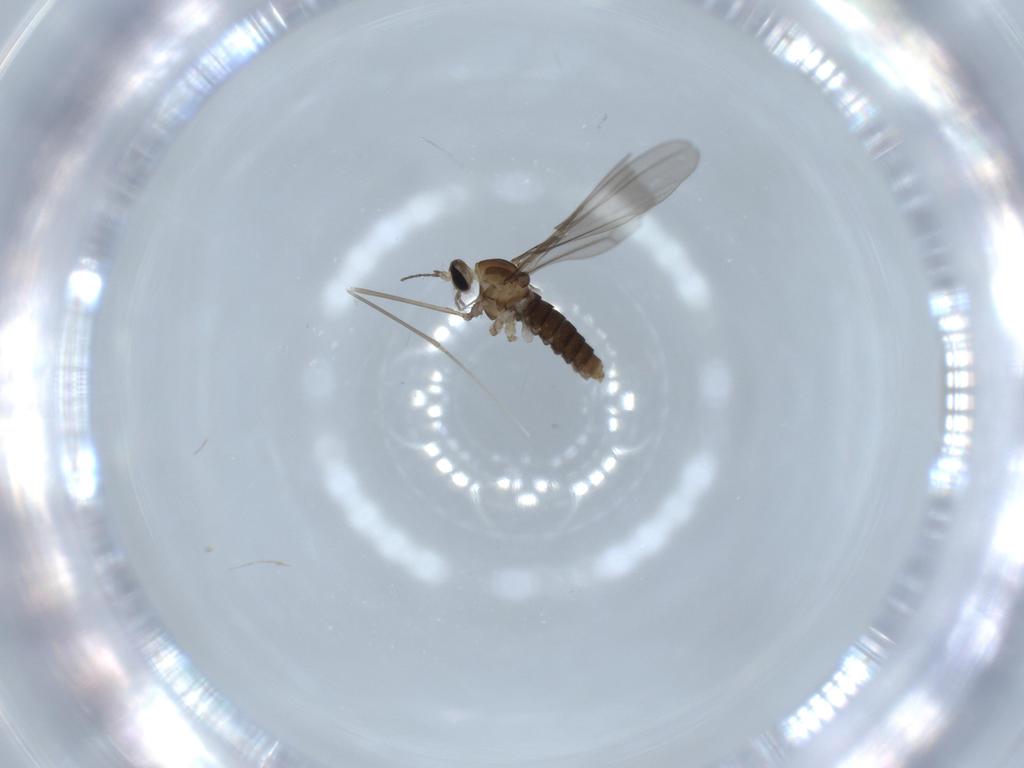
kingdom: Animalia
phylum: Arthropoda
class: Insecta
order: Diptera
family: Cecidomyiidae
